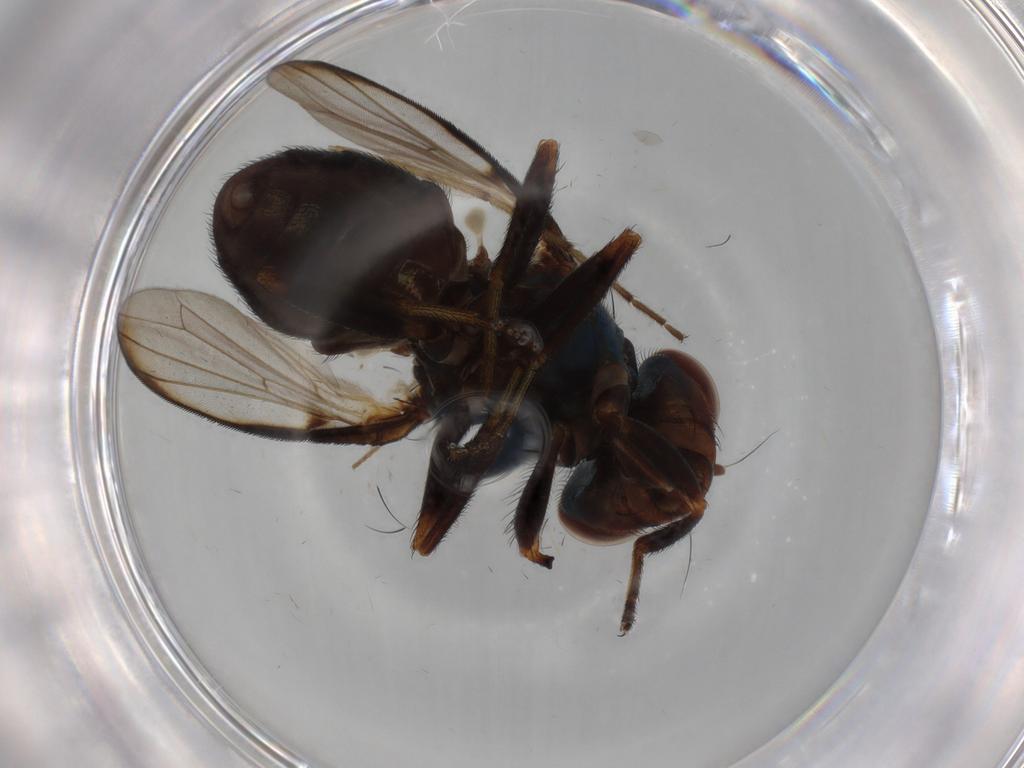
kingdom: Animalia
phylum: Arthropoda
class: Insecta
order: Diptera
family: Ulidiidae
